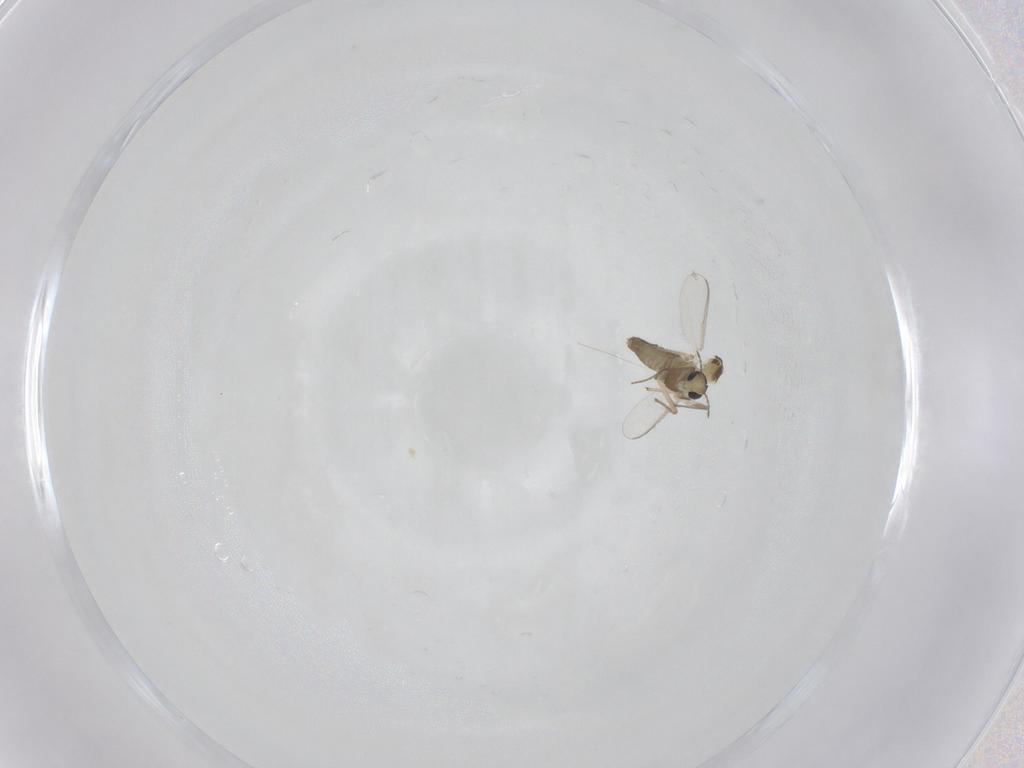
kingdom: Animalia
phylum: Arthropoda
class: Insecta
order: Diptera
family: Chironomidae
